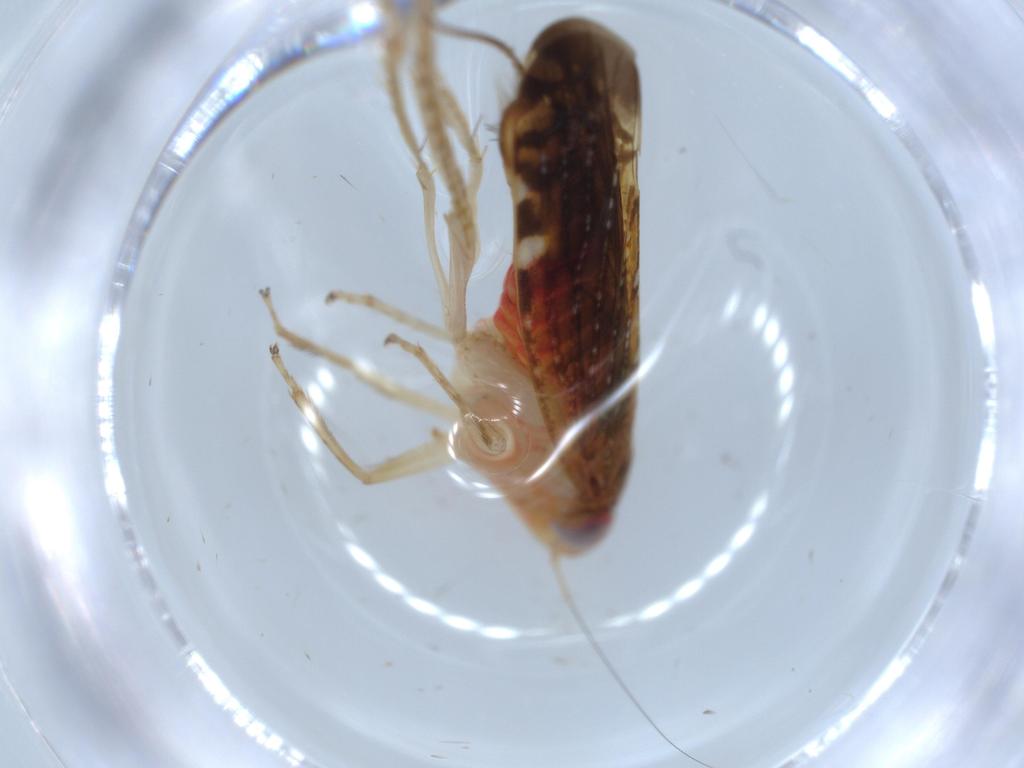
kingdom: Animalia
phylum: Arthropoda
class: Insecta
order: Hemiptera
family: Cicadellidae
